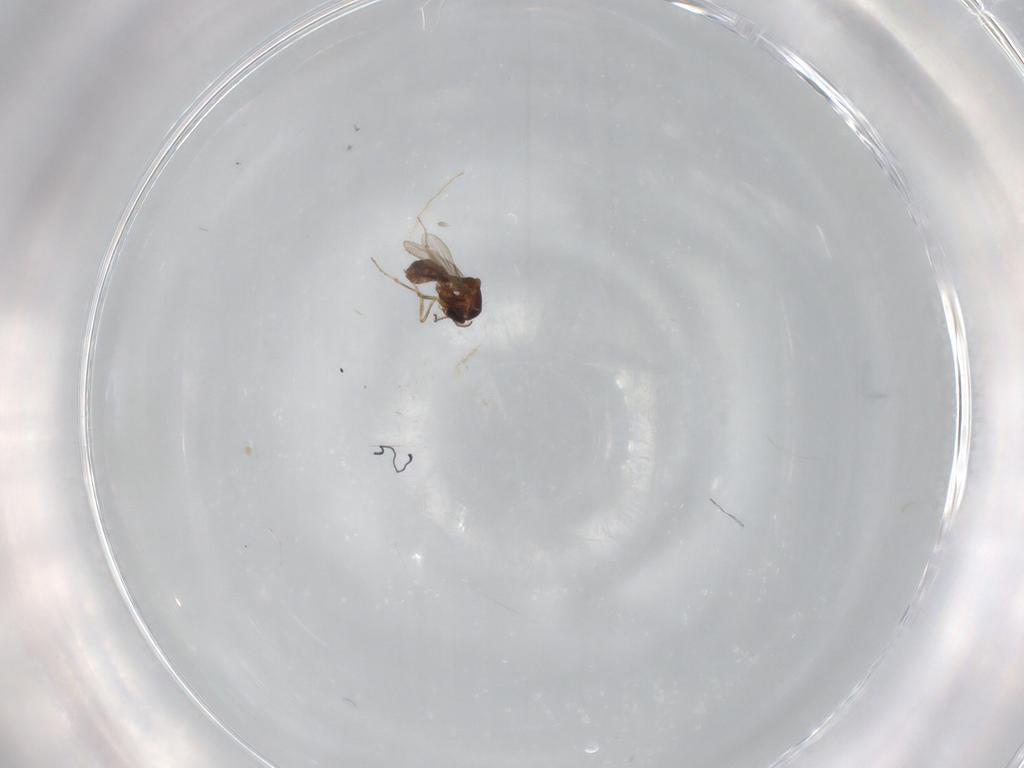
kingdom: Animalia
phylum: Arthropoda
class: Insecta
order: Diptera
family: Ceratopogonidae
